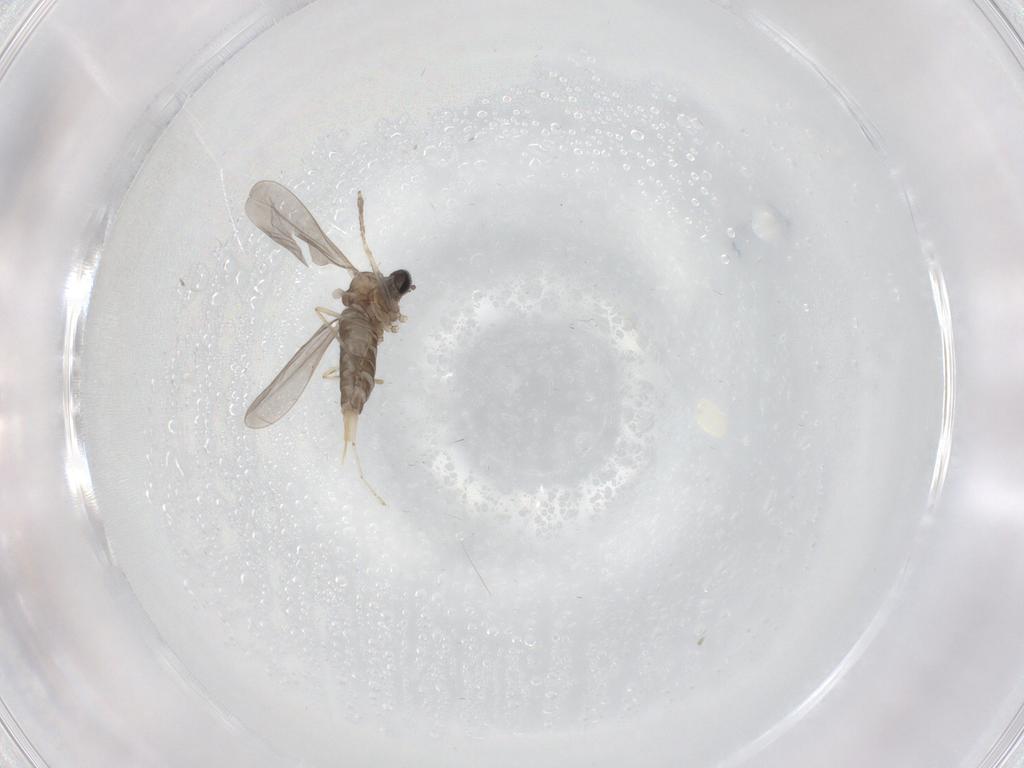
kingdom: Animalia
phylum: Arthropoda
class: Insecta
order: Diptera
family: Cecidomyiidae
